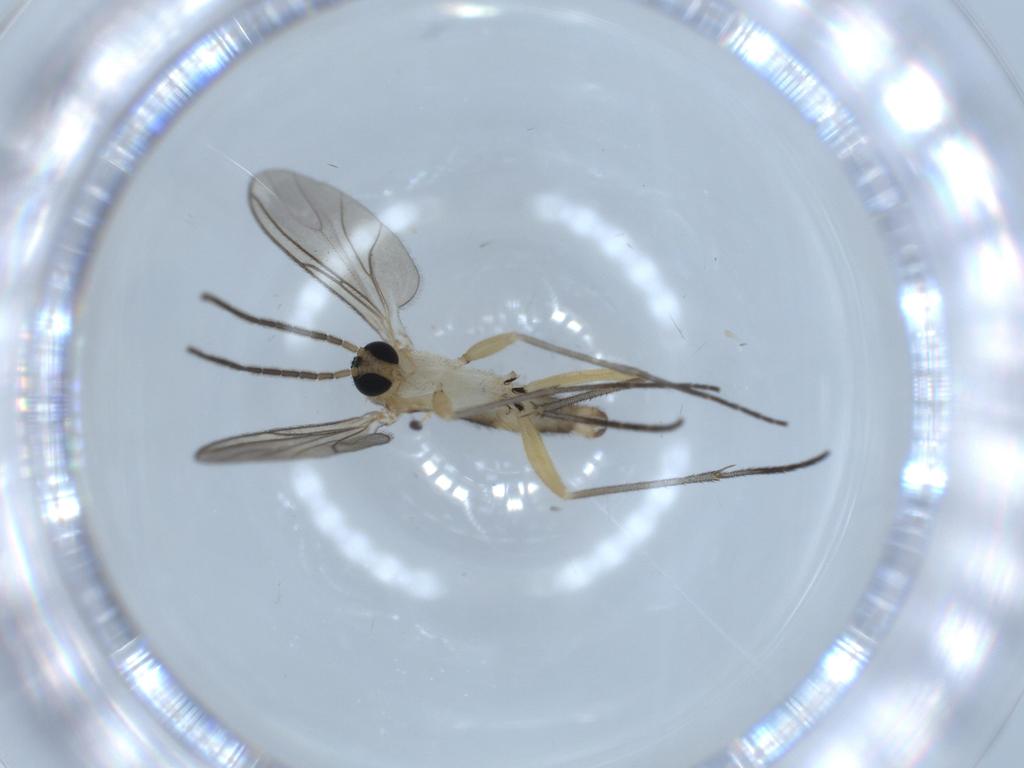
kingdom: Animalia
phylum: Arthropoda
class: Insecta
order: Diptera
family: Sciaridae
